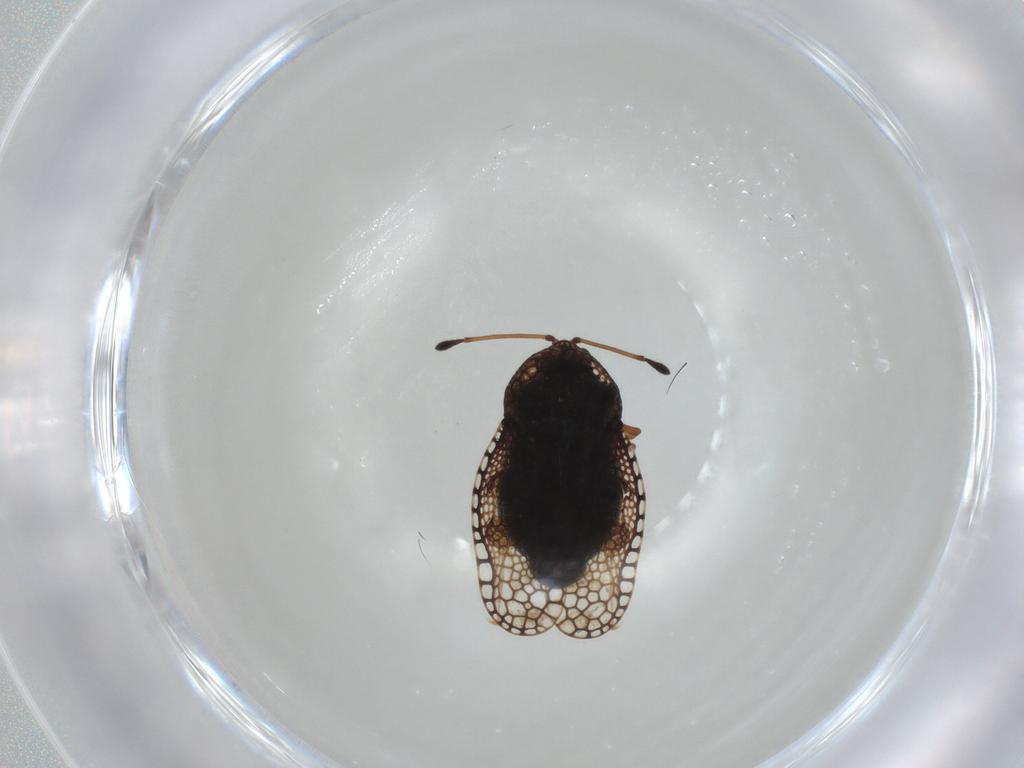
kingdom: Animalia
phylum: Arthropoda
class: Insecta
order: Hemiptera
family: Tingidae
